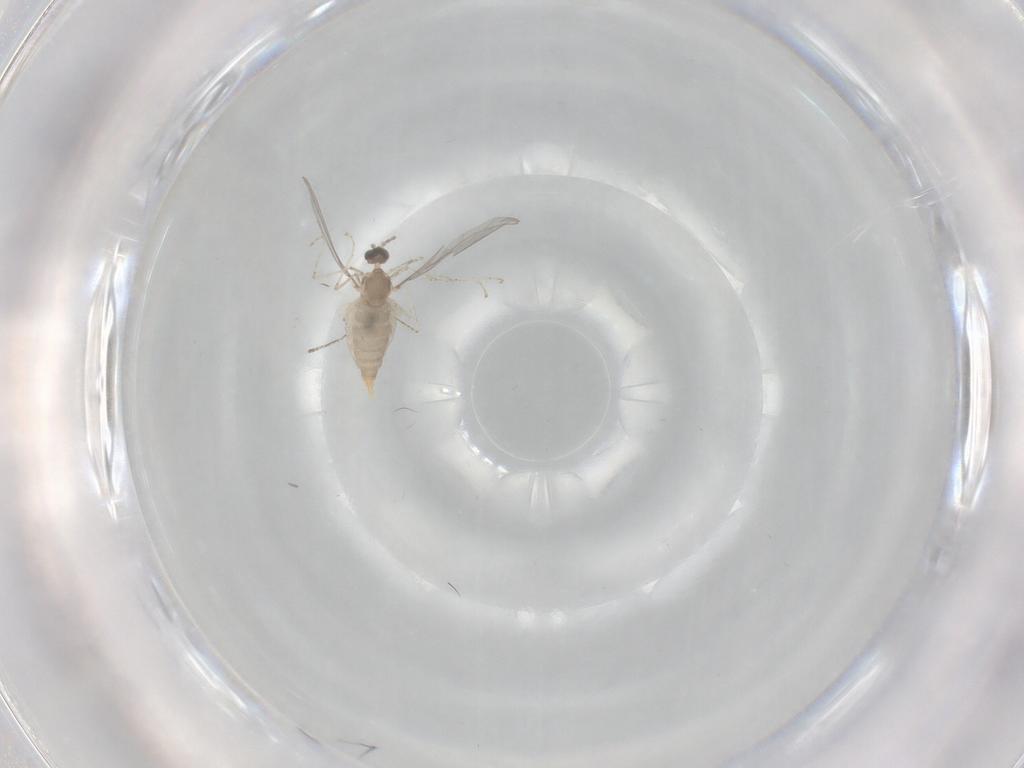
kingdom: Animalia
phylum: Arthropoda
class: Insecta
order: Diptera
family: Cecidomyiidae
